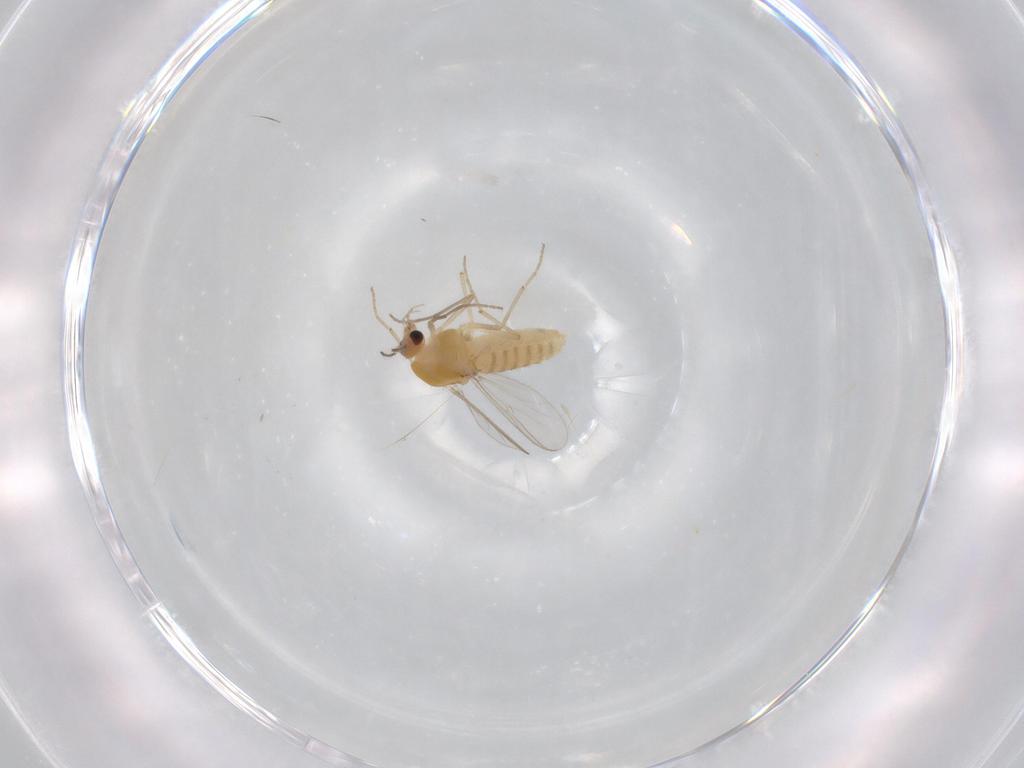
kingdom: Animalia
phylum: Arthropoda
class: Insecta
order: Diptera
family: Chironomidae
